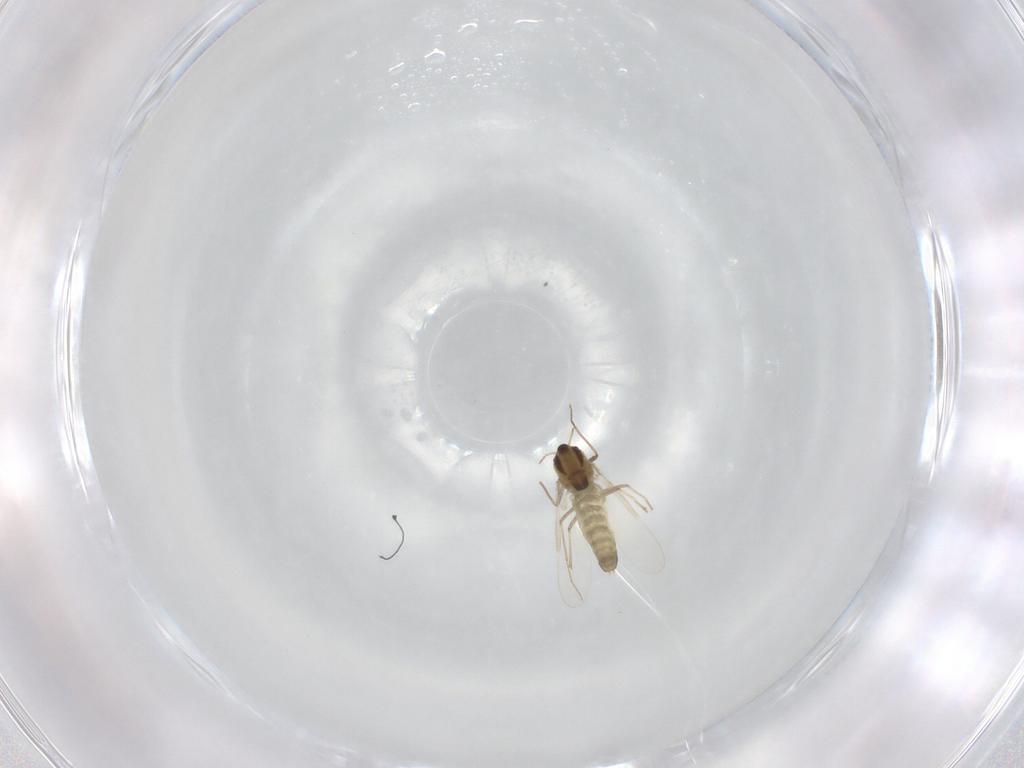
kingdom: Animalia
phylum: Arthropoda
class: Insecta
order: Diptera
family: Chironomidae
